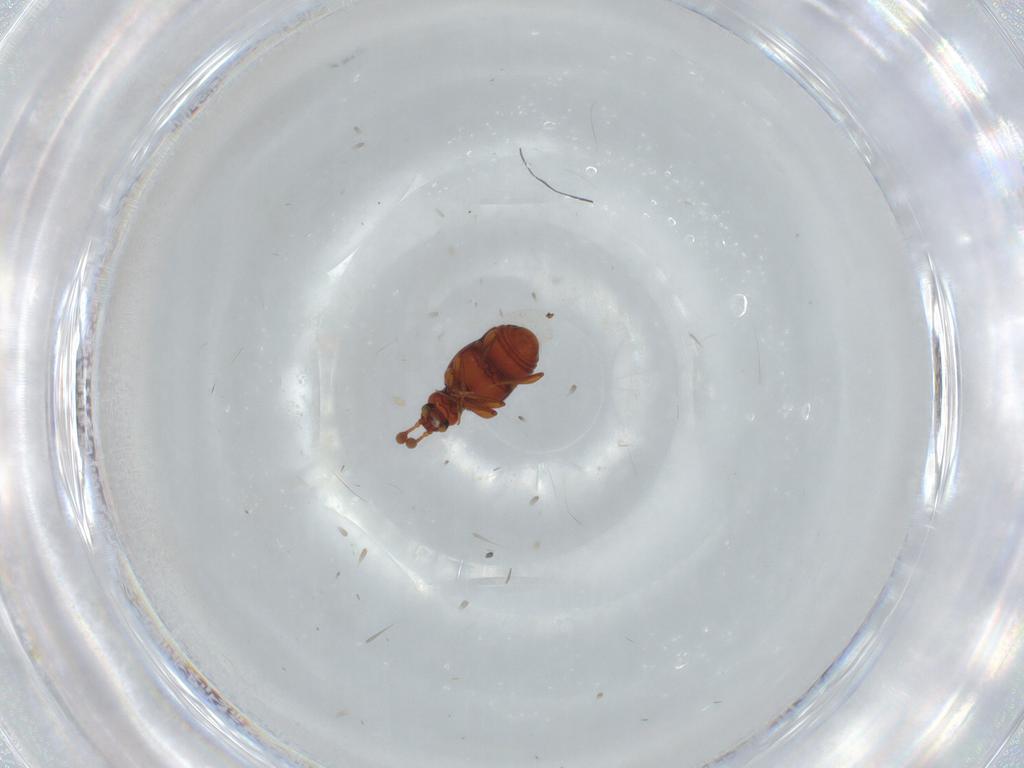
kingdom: Animalia
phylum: Arthropoda
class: Insecta
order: Coleoptera
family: Staphylinidae
